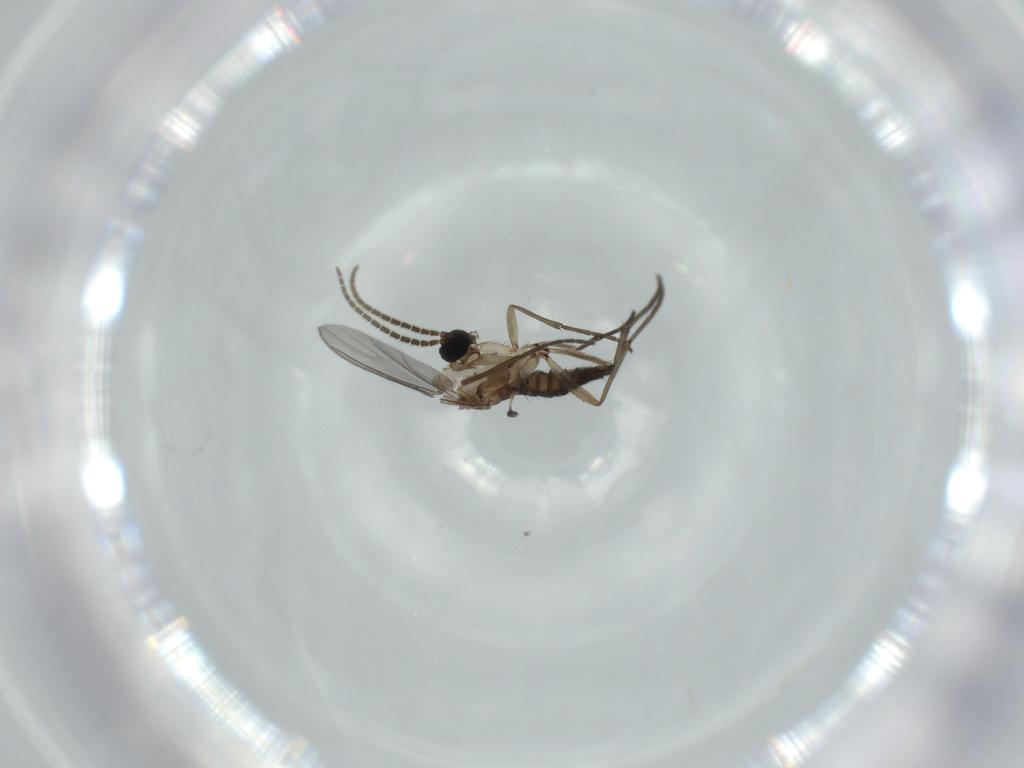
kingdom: Animalia
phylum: Arthropoda
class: Insecta
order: Diptera
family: Sciaridae
